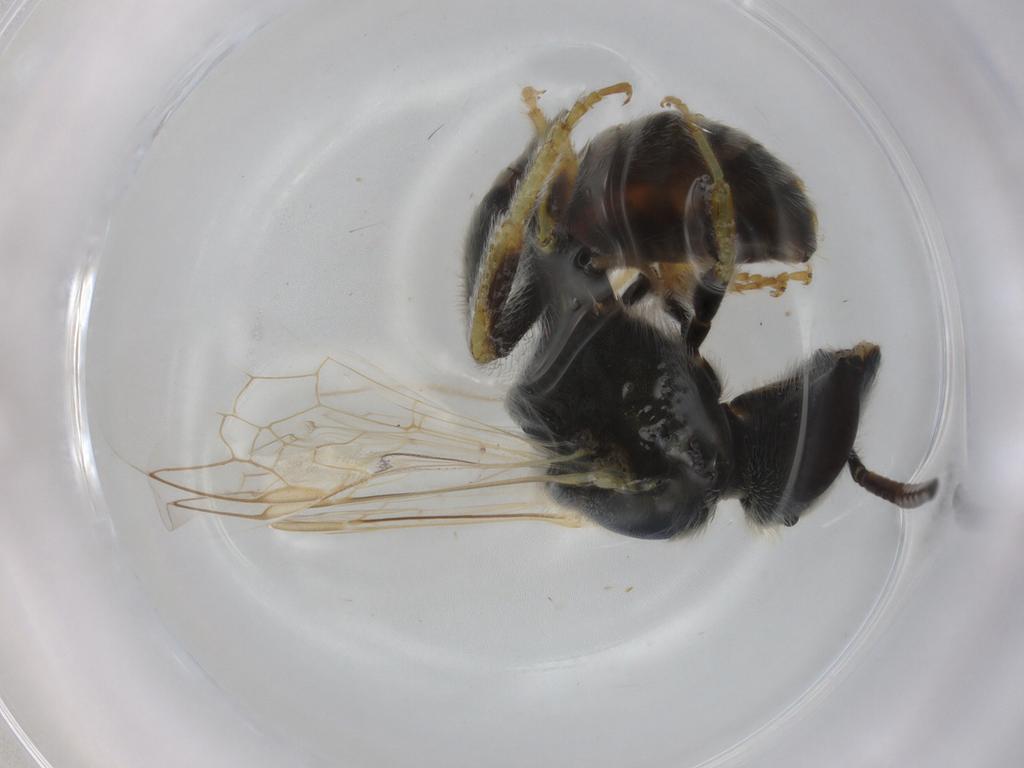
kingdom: Animalia
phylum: Arthropoda
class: Insecta
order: Hymenoptera
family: Halictidae
